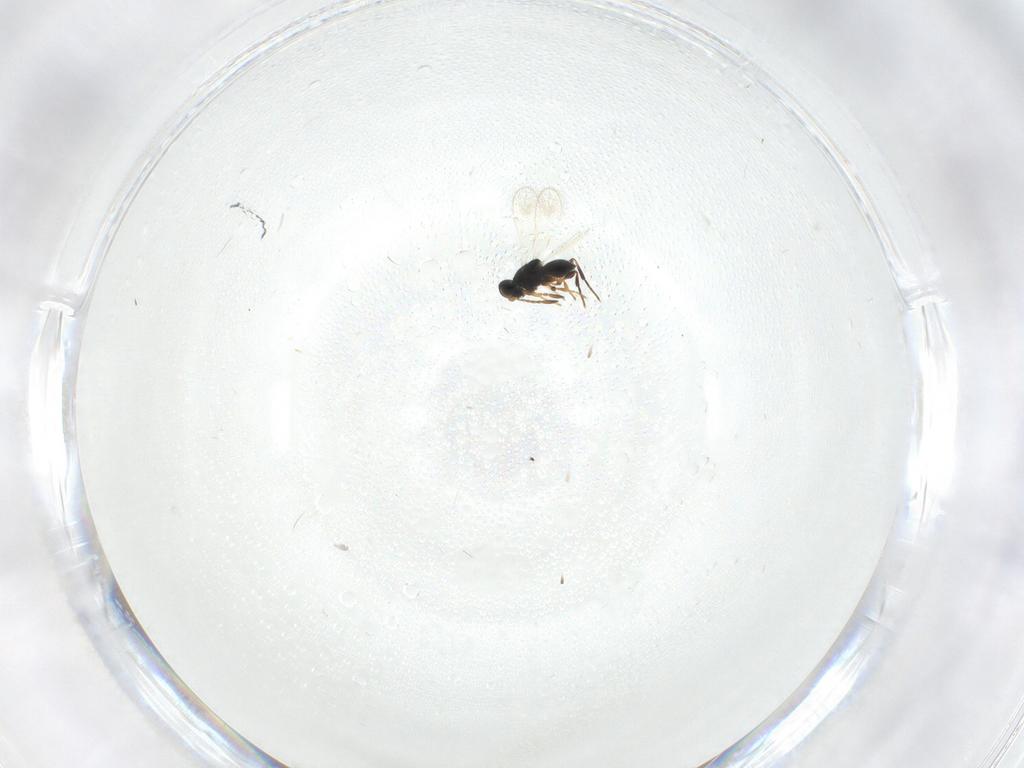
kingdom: Animalia
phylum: Arthropoda
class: Insecta
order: Hymenoptera
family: Platygastridae
